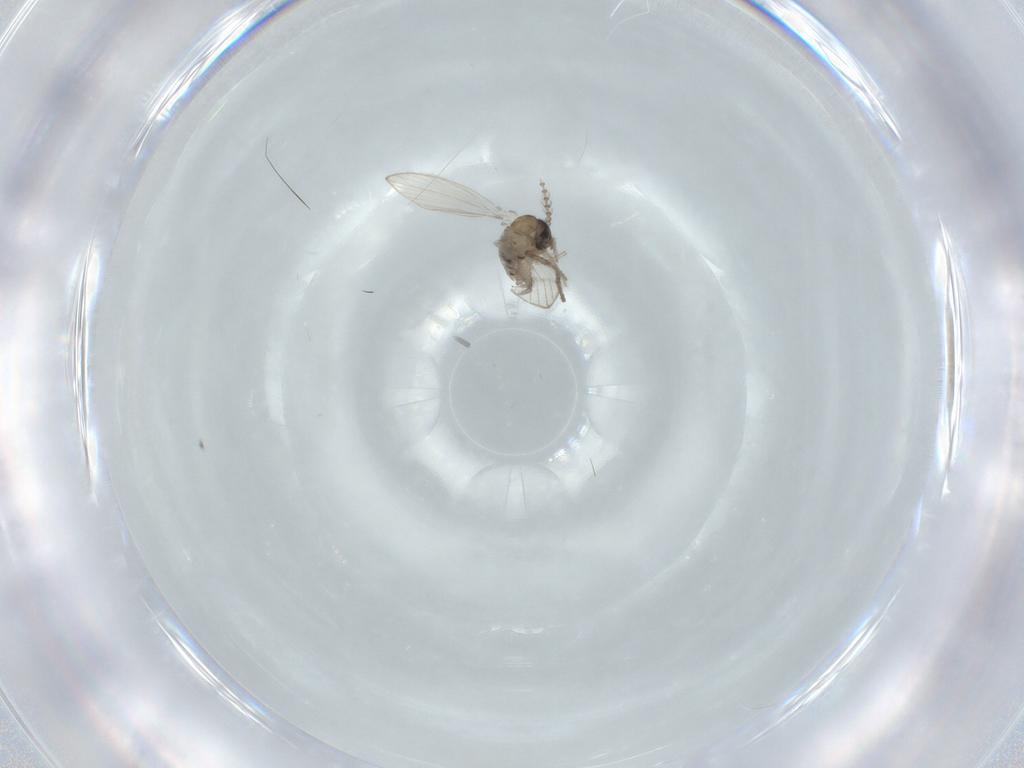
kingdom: Animalia
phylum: Arthropoda
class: Insecta
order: Diptera
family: Psychodidae
